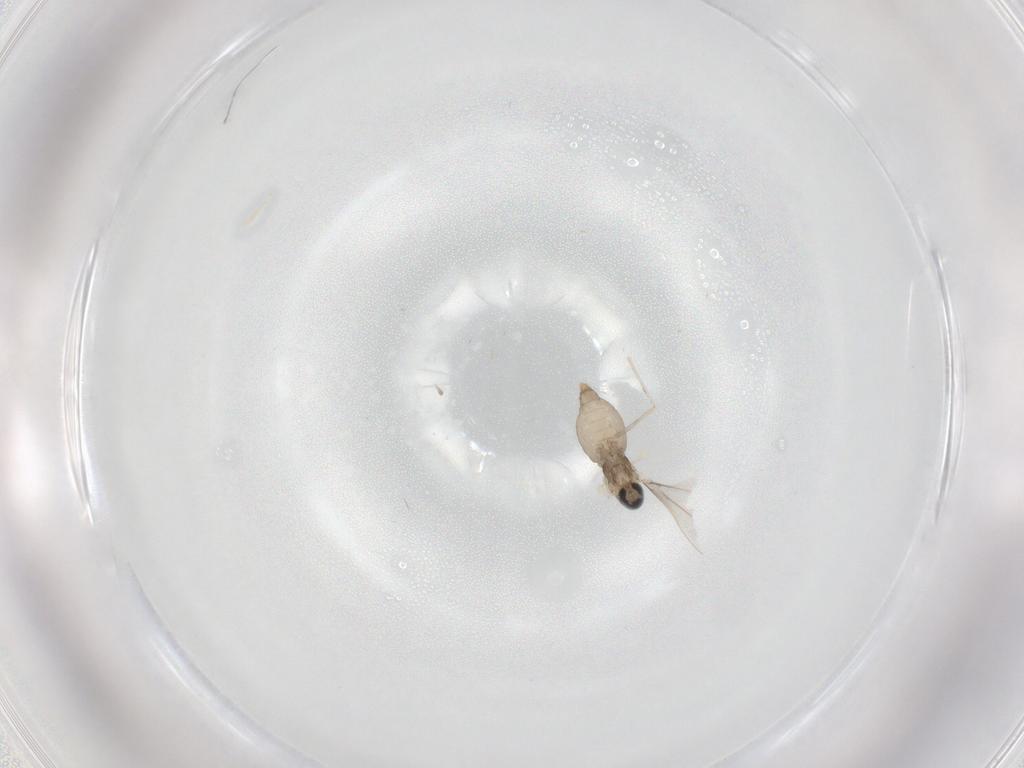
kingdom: Animalia
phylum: Arthropoda
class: Insecta
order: Diptera
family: Cecidomyiidae
